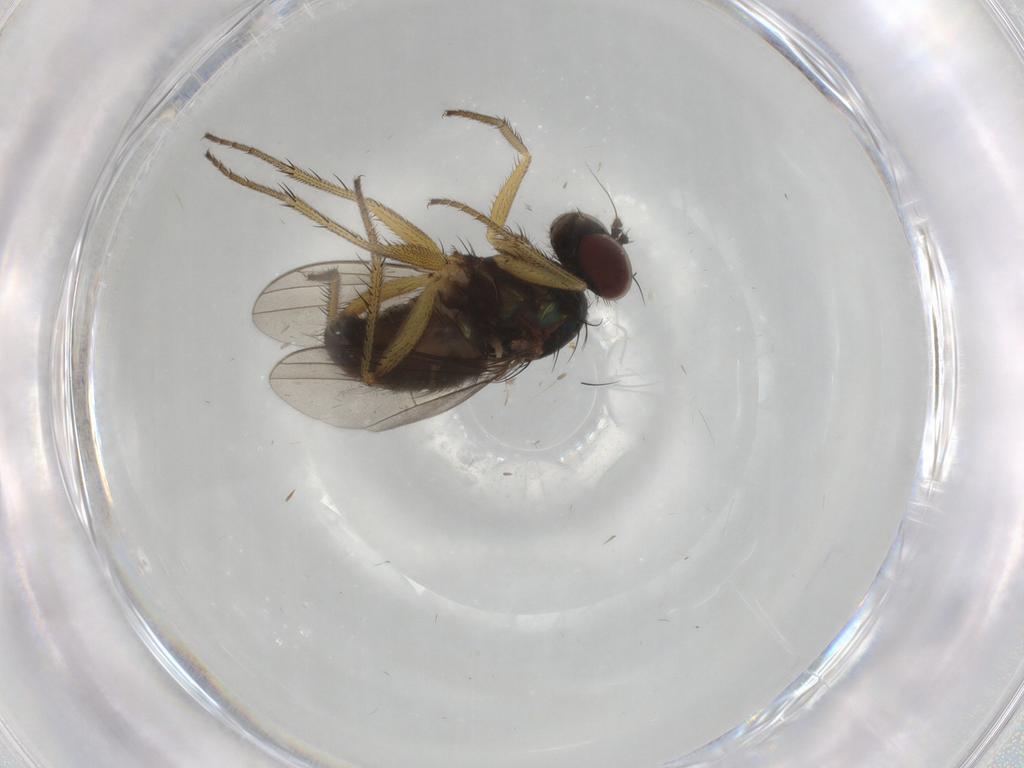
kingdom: Animalia
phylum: Arthropoda
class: Insecta
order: Diptera
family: Dolichopodidae
